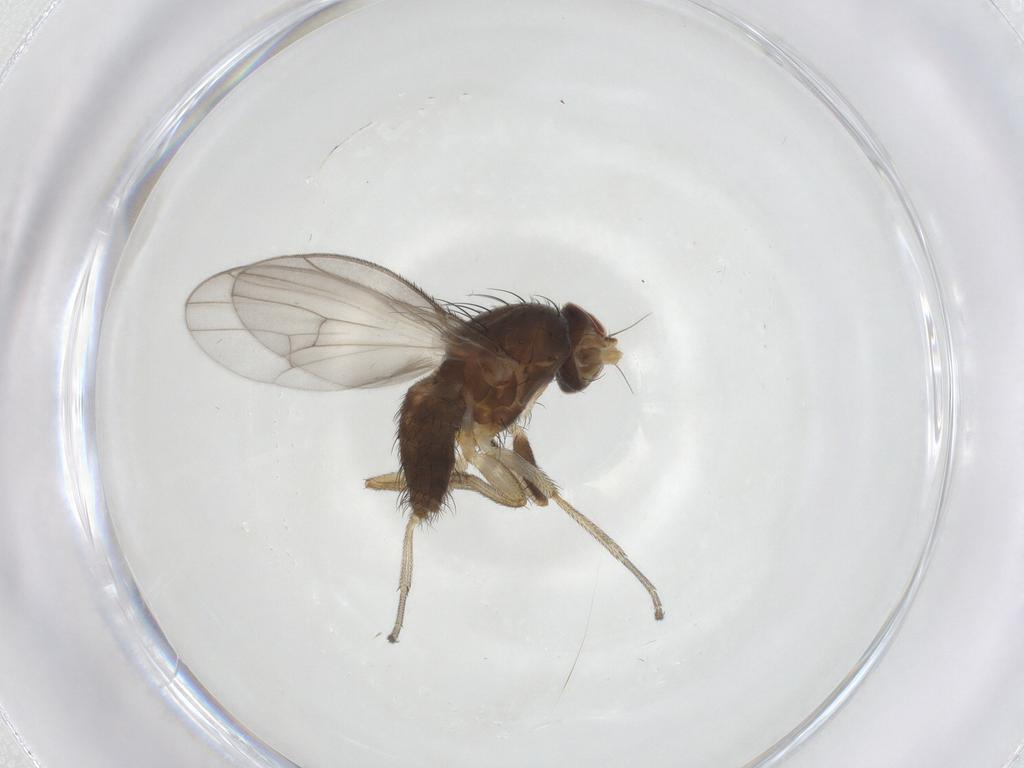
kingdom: Animalia
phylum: Arthropoda
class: Insecta
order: Diptera
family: Heleomyzidae
